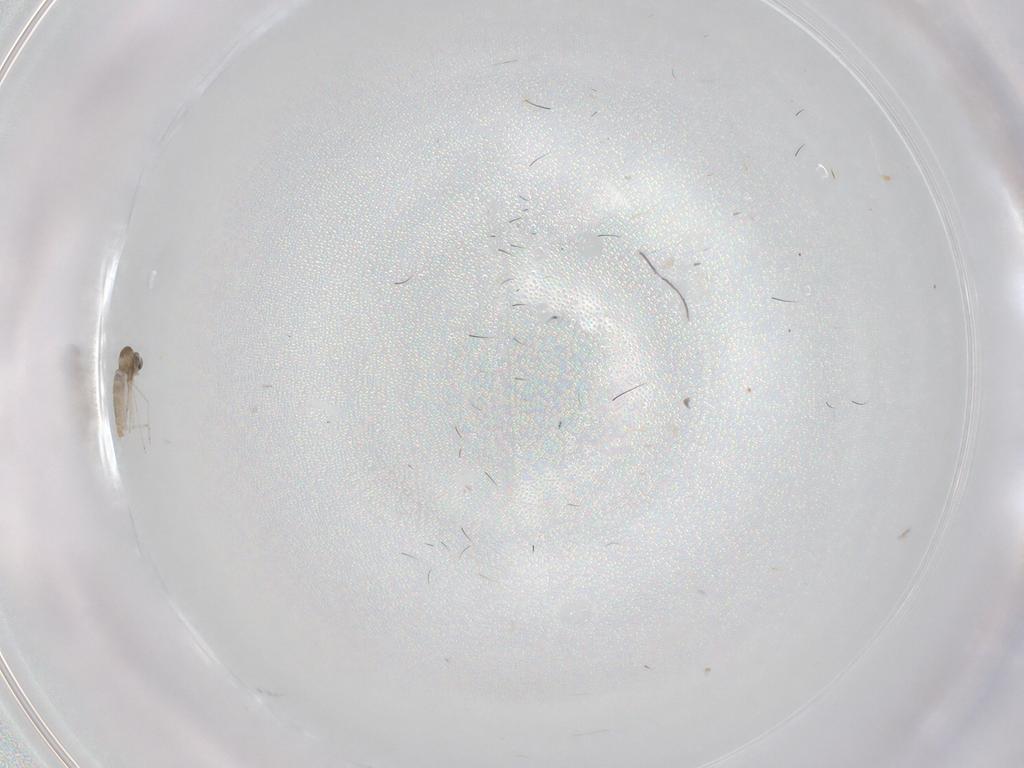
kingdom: Animalia
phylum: Arthropoda
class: Insecta
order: Diptera
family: Cecidomyiidae
